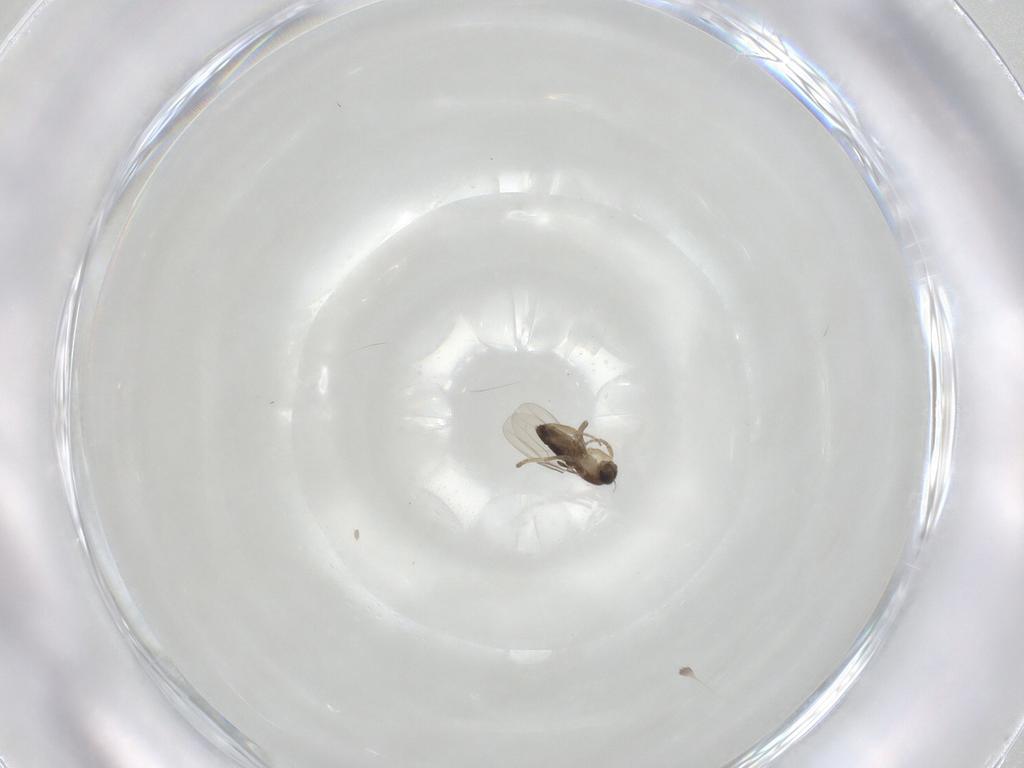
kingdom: Animalia
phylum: Arthropoda
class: Insecta
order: Diptera
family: Phoridae
